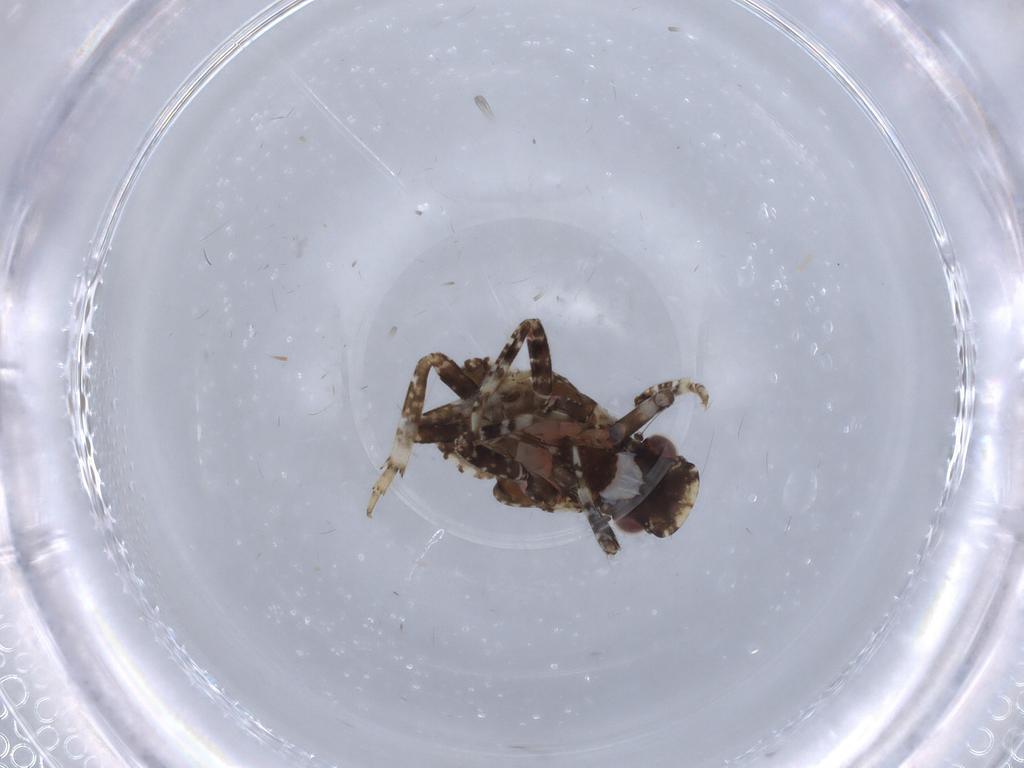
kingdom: Animalia
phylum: Arthropoda
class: Insecta
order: Hemiptera
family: Fulgoridae
